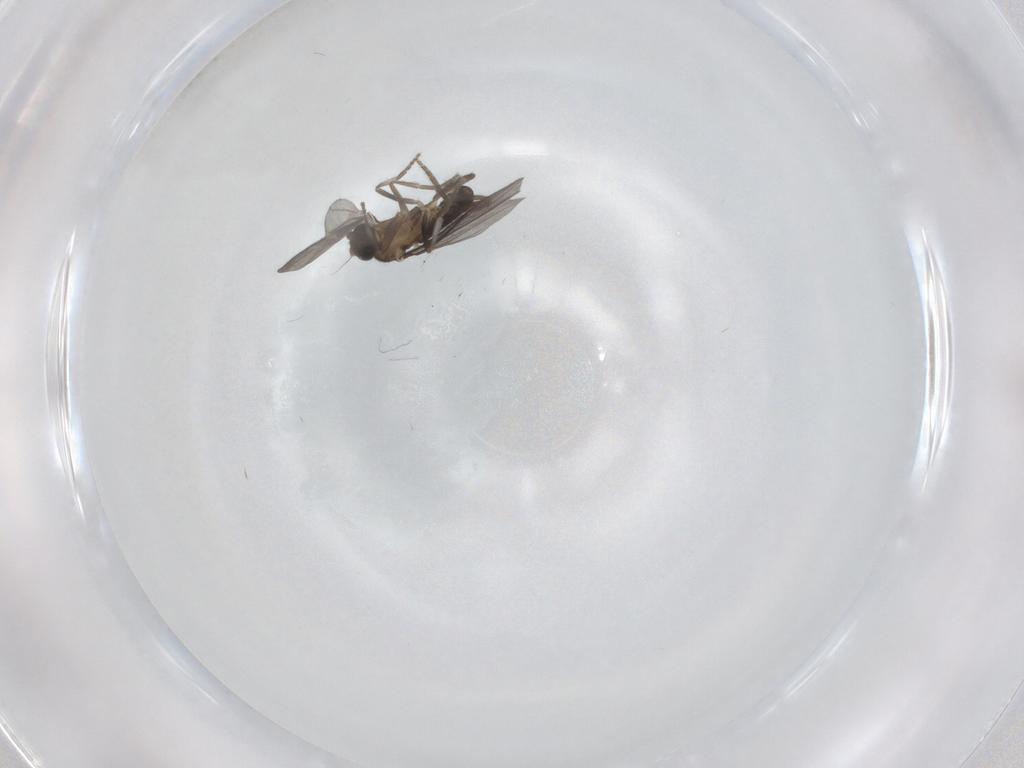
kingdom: Animalia
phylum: Arthropoda
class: Insecta
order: Diptera
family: Phoridae
